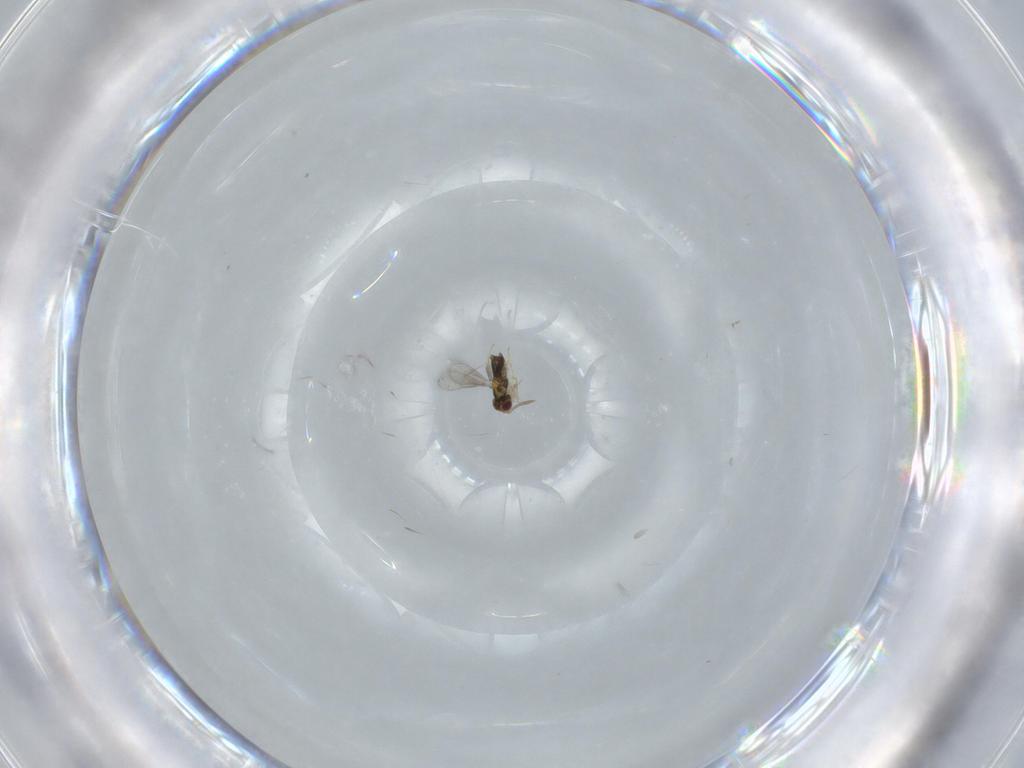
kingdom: Animalia
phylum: Arthropoda
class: Insecta
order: Hymenoptera
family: Aphelinidae
